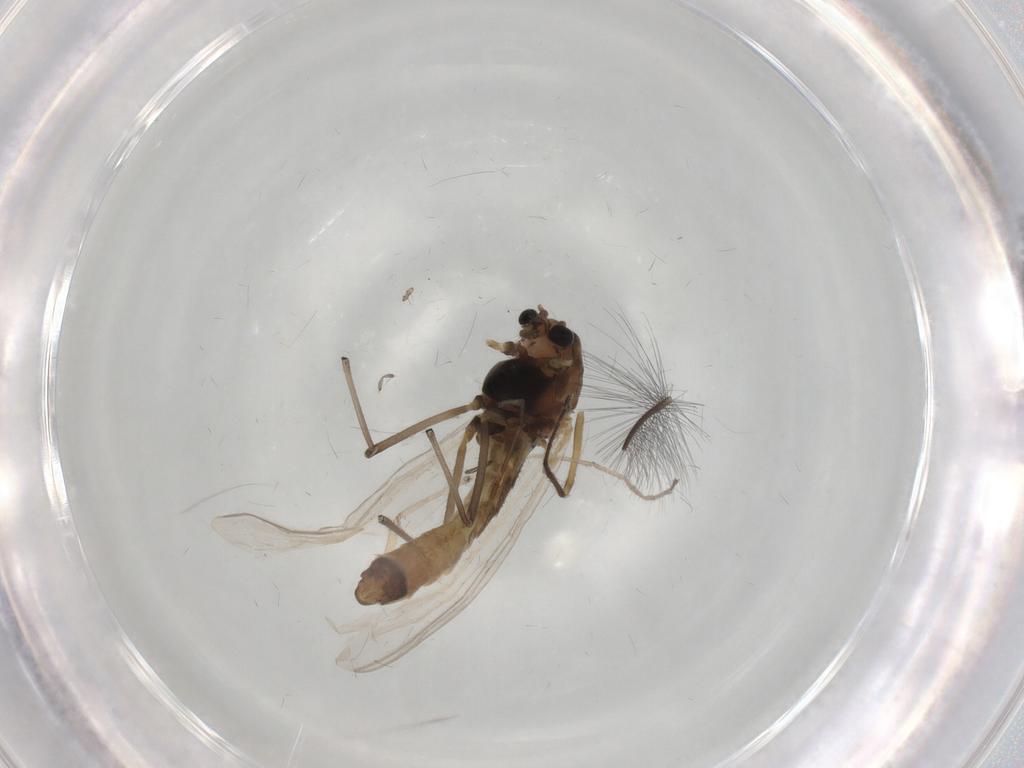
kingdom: Animalia
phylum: Arthropoda
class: Insecta
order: Diptera
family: Chironomidae
